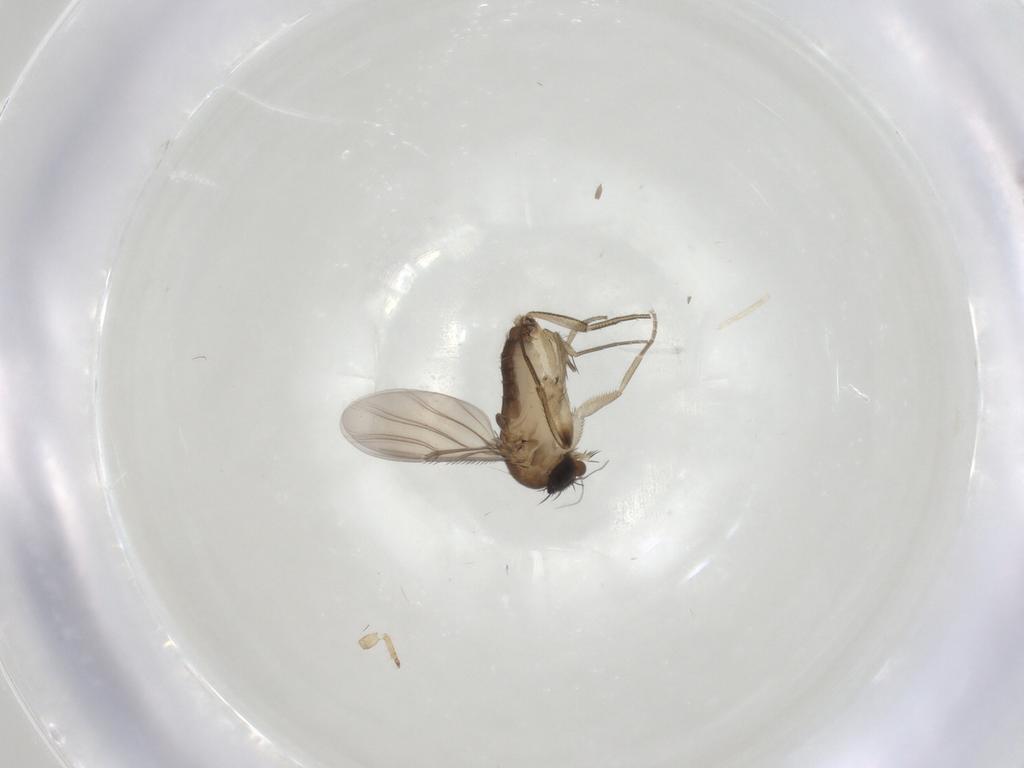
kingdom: Animalia
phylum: Arthropoda
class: Insecta
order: Diptera
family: Phoridae
